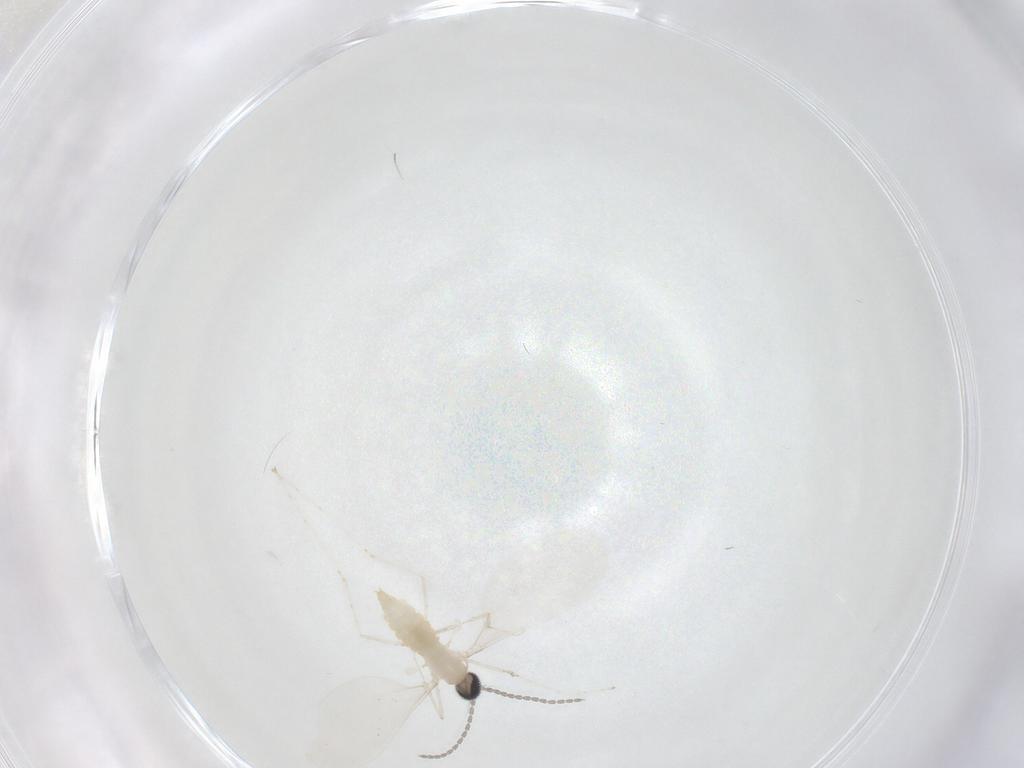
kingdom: Animalia
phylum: Arthropoda
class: Insecta
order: Diptera
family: Cecidomyiidae
